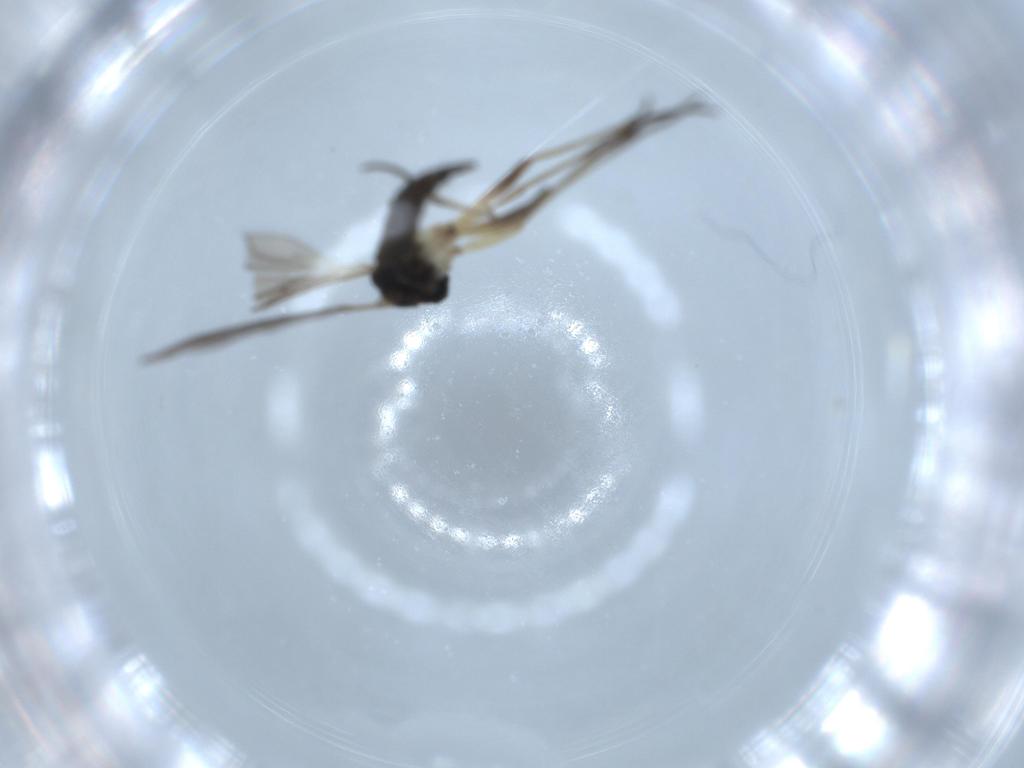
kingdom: Animalia
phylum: Arthropoda
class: Insecta
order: Diptera
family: Sciaridae
